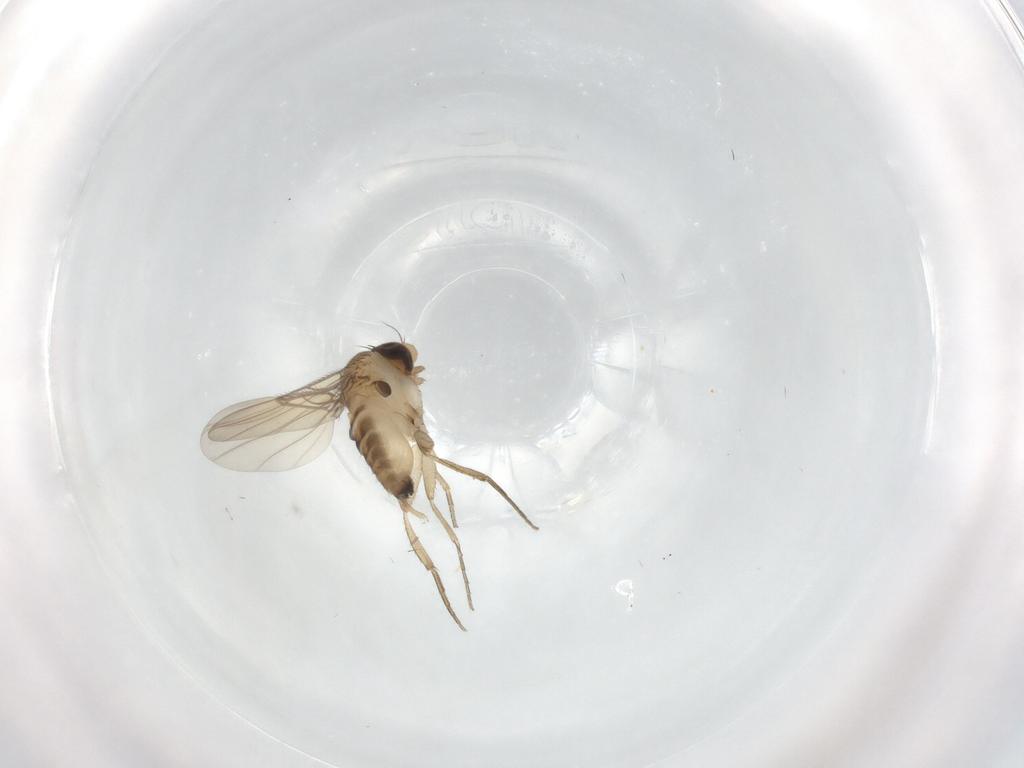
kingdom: Animalia
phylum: Arthropoda
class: Insecta
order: Diptera
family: Phoridae
